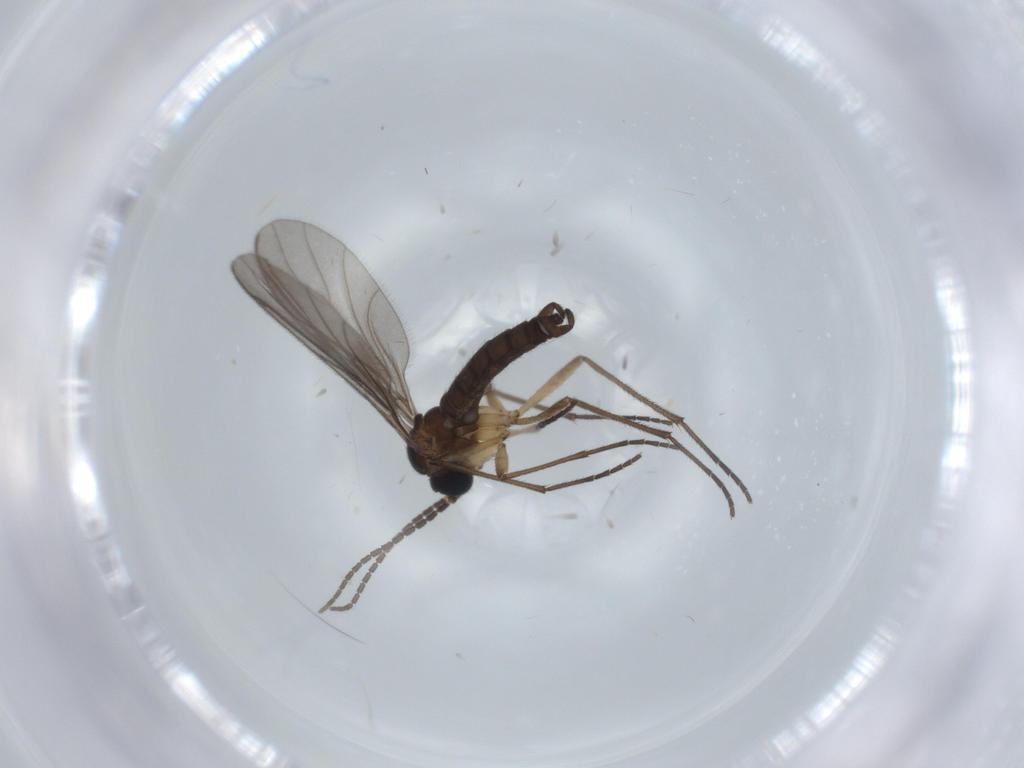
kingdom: Animalia
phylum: Arthropoda
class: Insecta
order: Diptera
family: Sciaridae
